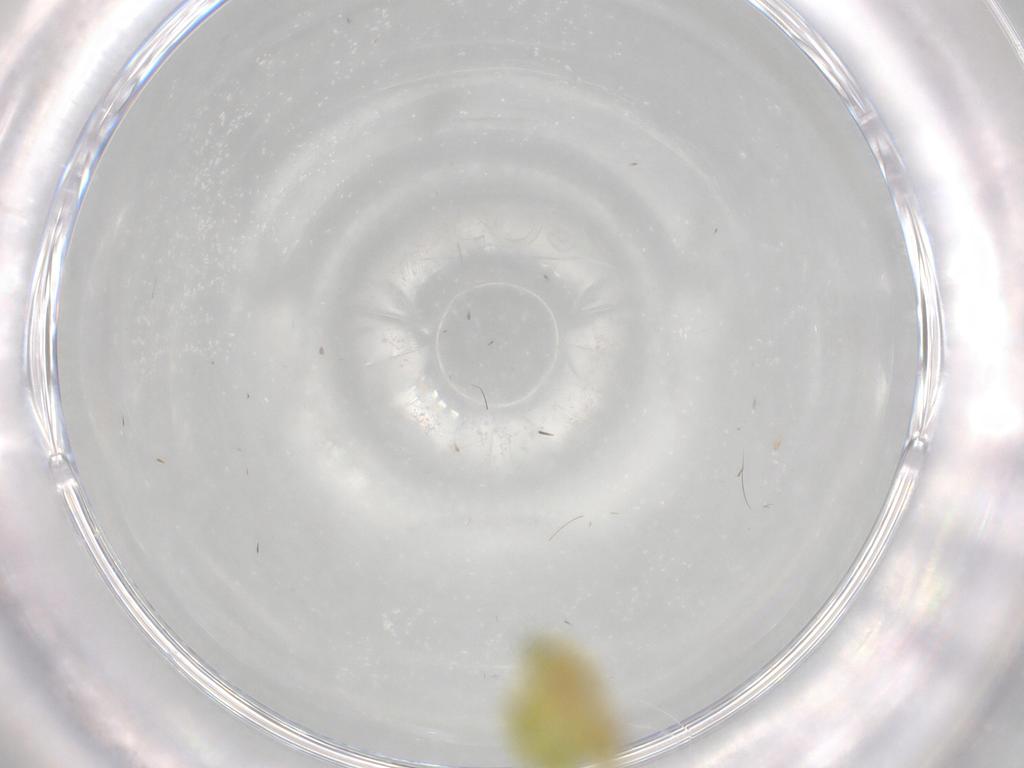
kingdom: Animalia
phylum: Arthropoda
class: Insecta
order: Hemiptera
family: Cicadellidae
